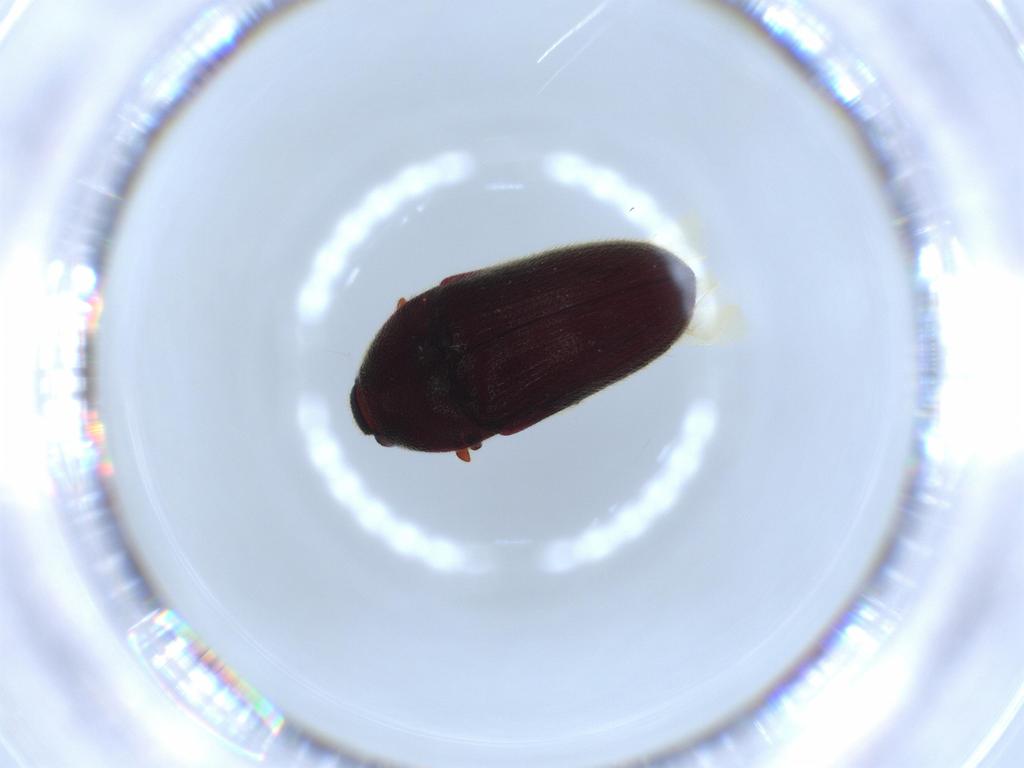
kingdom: Animalia
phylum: Arthropoda
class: Insecta
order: Coleoptera
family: Throscidae
